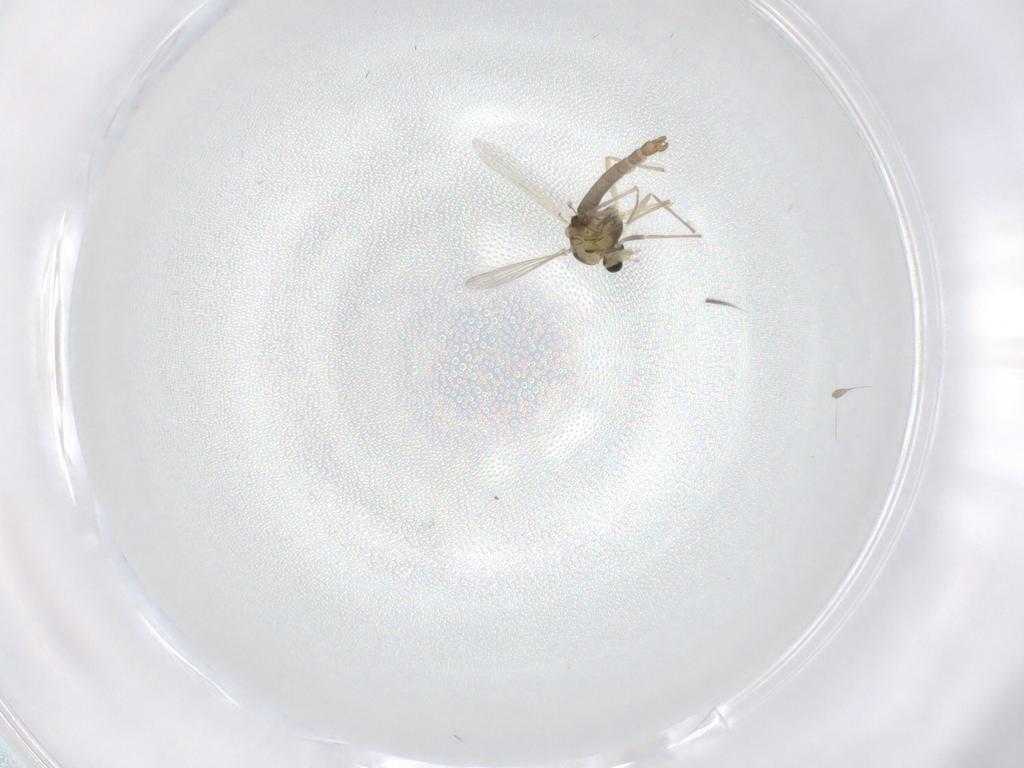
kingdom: Animalia
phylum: Arthropoda
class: Insecta
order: Diptera
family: Chironomidae
